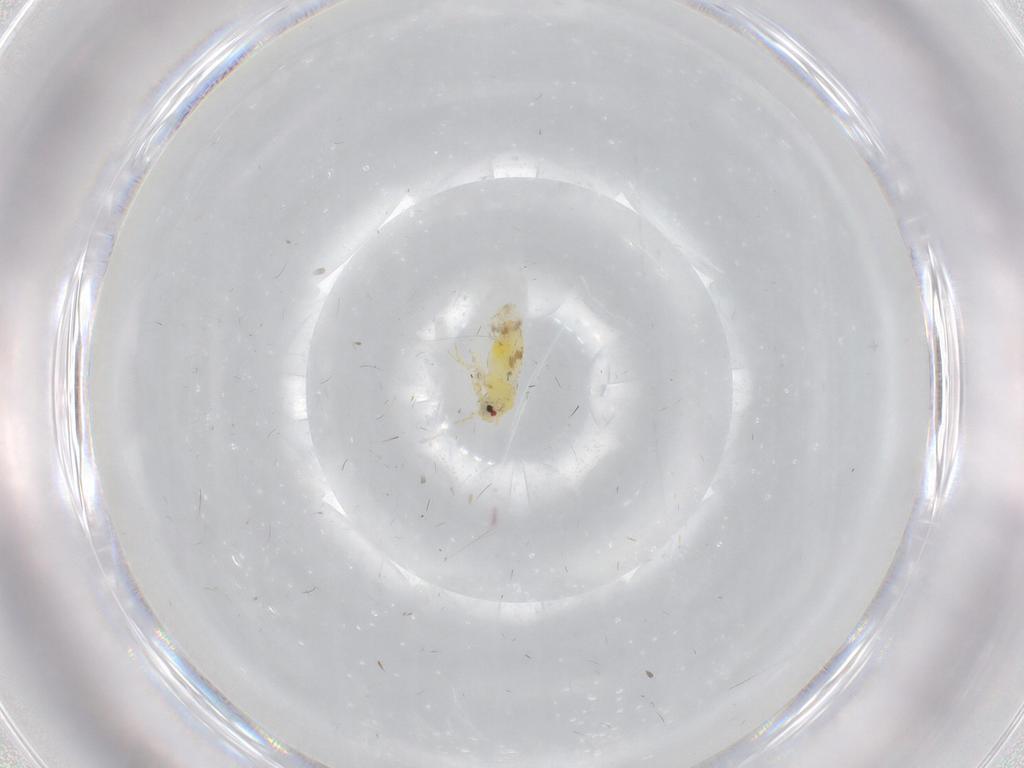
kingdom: Animalia
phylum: Arthropoda
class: Insecta
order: Hemiptera
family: Aleyrodidae
